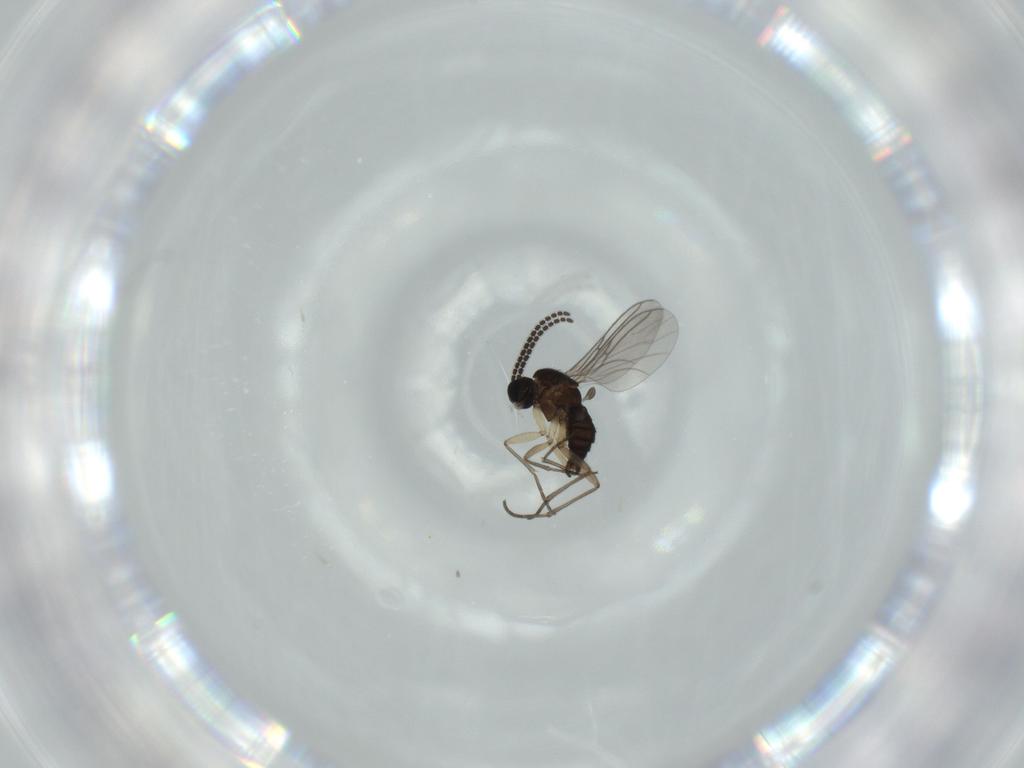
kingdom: Animalia
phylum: Arthropoda
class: Insecta
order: Diptera
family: Sciaridae
